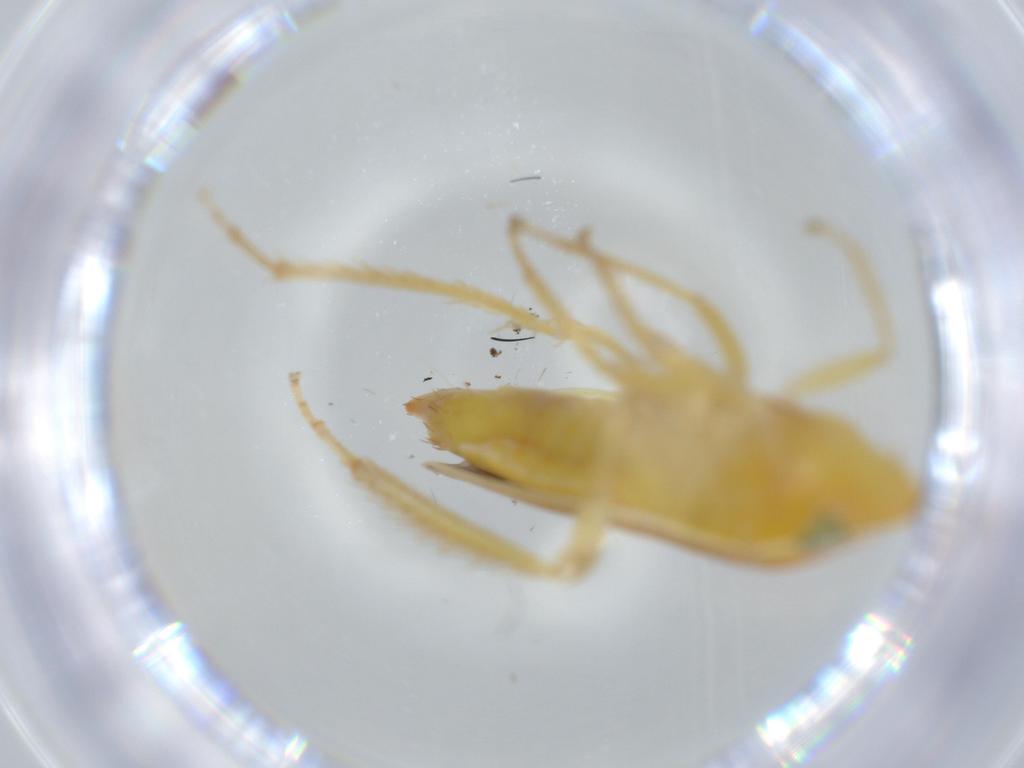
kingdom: Animalia
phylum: Arthropoda
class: Insecta
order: Hemiptera
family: Cicadellidae
